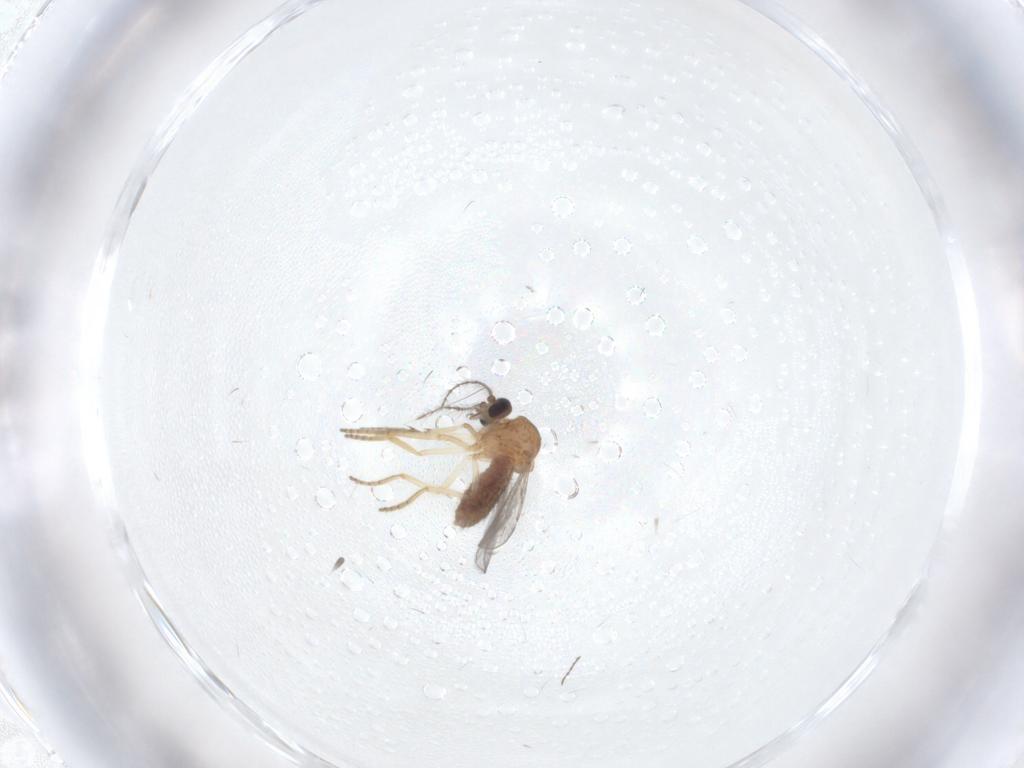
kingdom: Animalia
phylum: Arthropoda
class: Insecta
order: Diptera
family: Chironomidae
